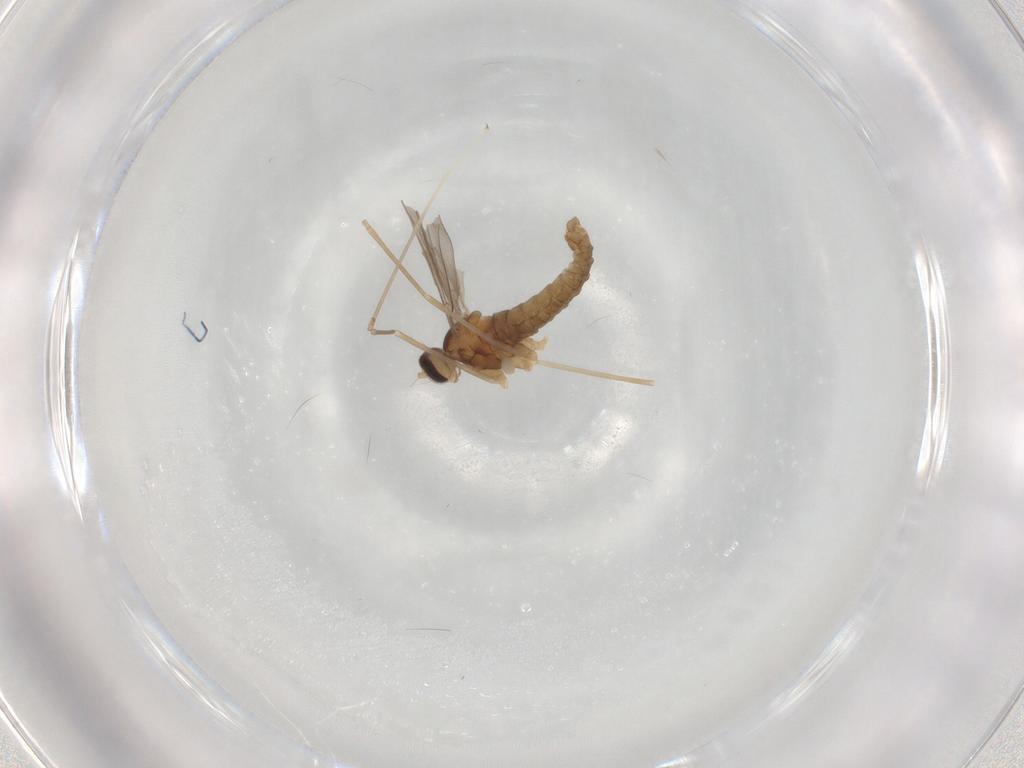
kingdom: Animalia
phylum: Arthropoda
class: Insecta
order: Diptera
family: Cecidomyiidae
